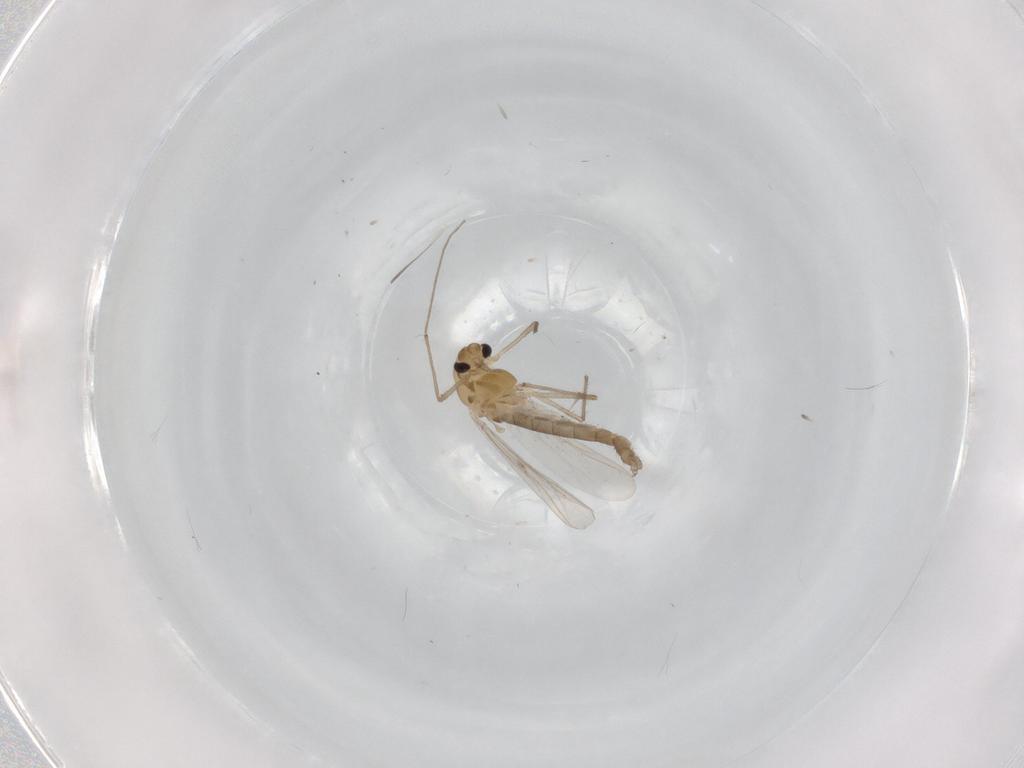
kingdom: Animalia
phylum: Arthropoda
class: Insecta
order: Diptera
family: Chironomidae
